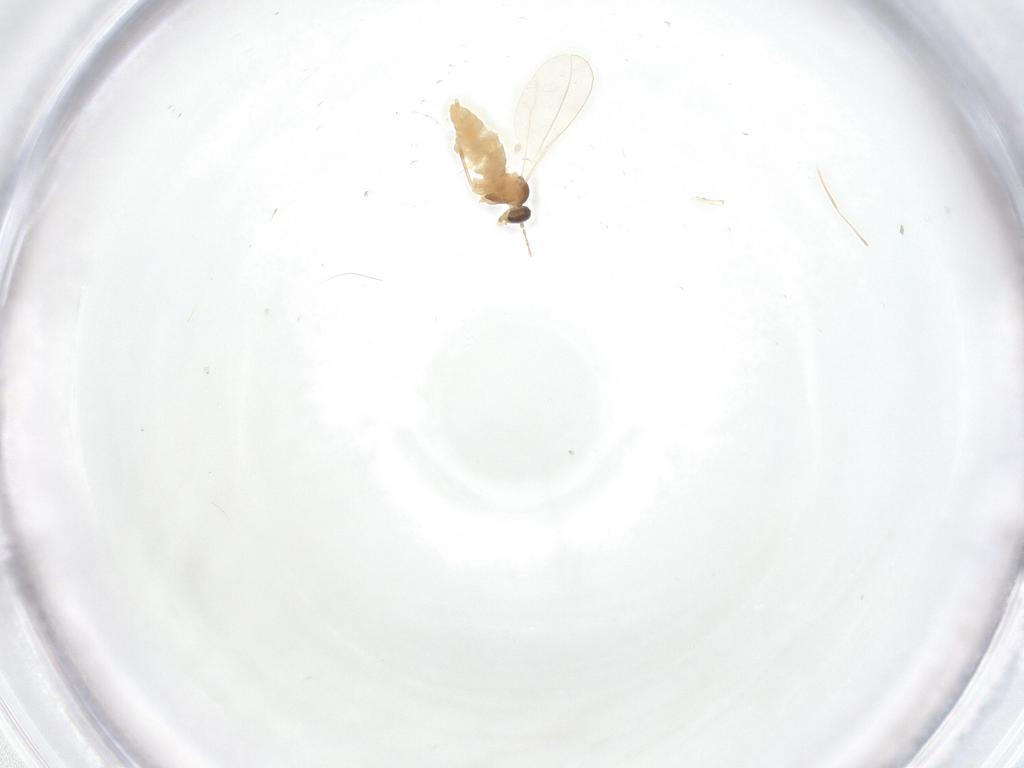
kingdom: Animalia
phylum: Arthropoda
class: Insecta
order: Diptera
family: Cecidomyiidae
